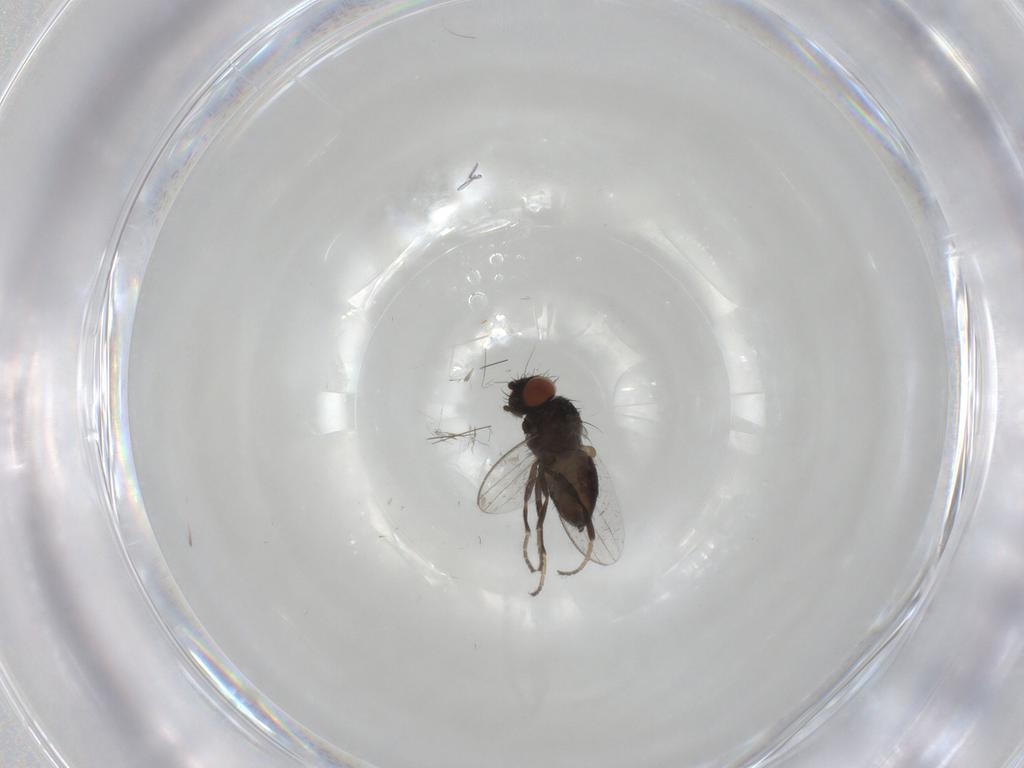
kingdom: Animalia
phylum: Arthropoda
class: Insecta
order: Diptera
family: Milichiidae
